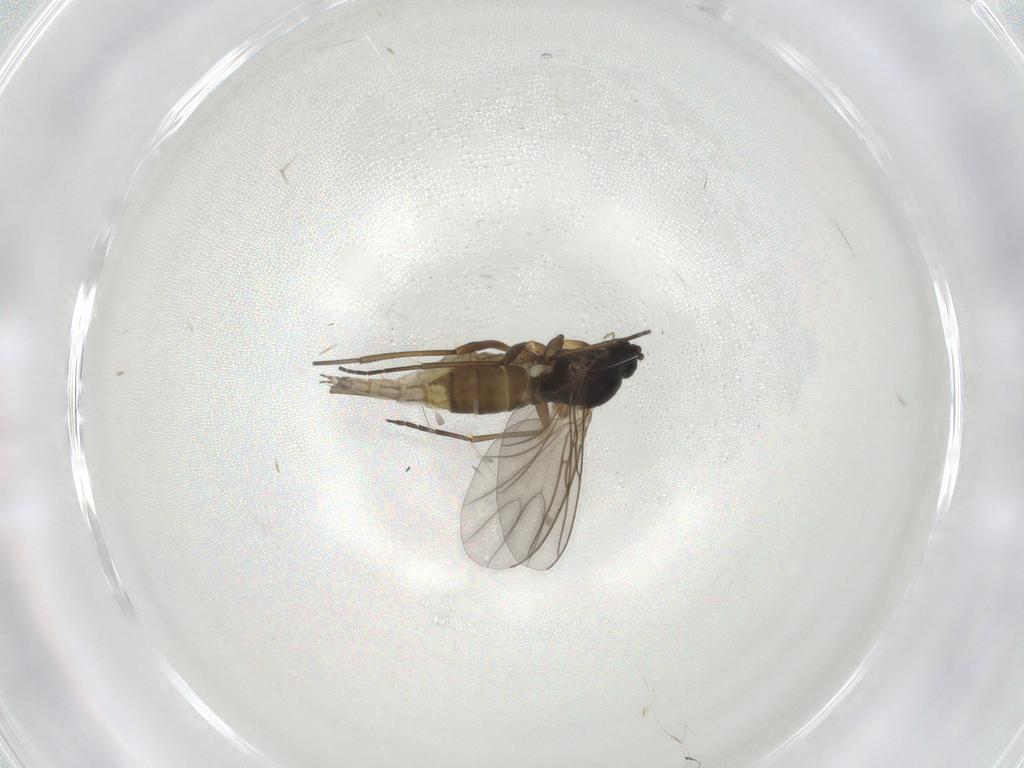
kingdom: Animalia
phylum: Arthropoda
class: Insecta
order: Diptera
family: Sciaridae
